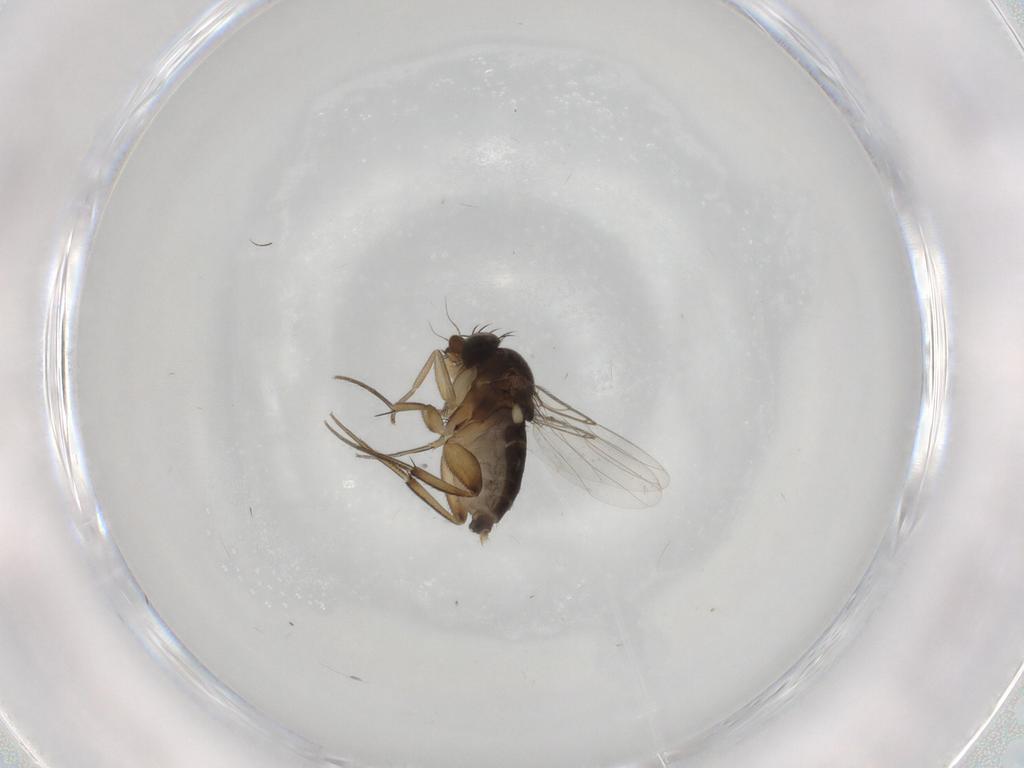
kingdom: Animalia
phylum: Arthropoda
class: Insecta
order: Diptera
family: Phoridae
